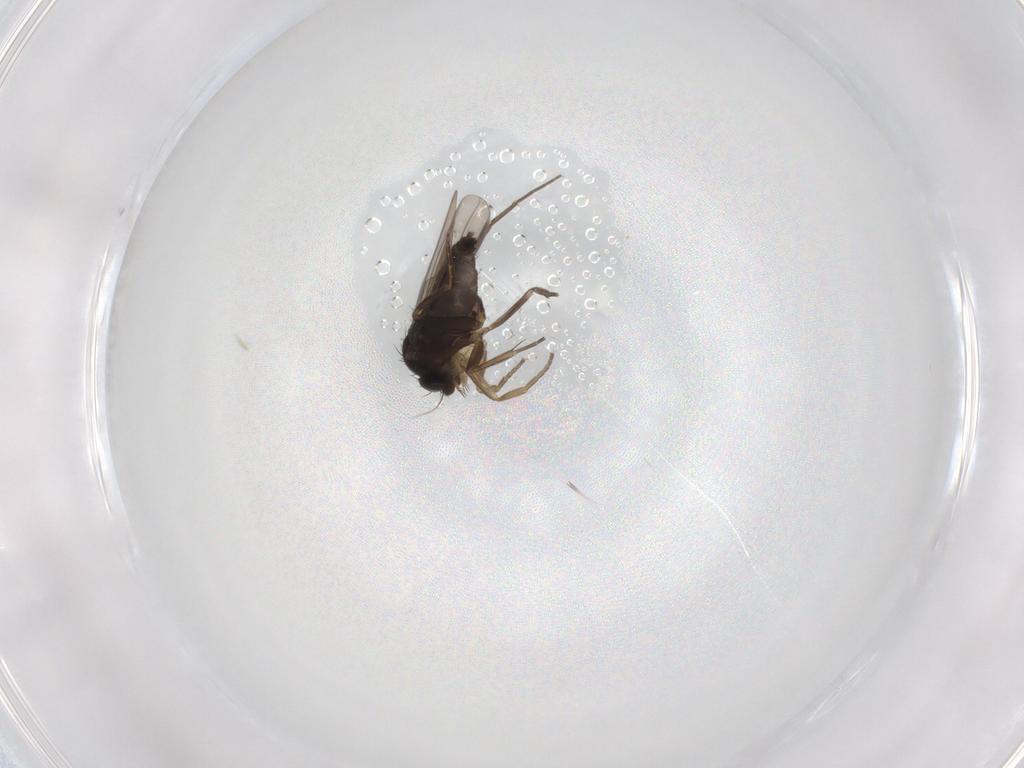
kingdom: Animalia
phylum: Arthropoda
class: Insecta
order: Diptera
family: Phoridae
